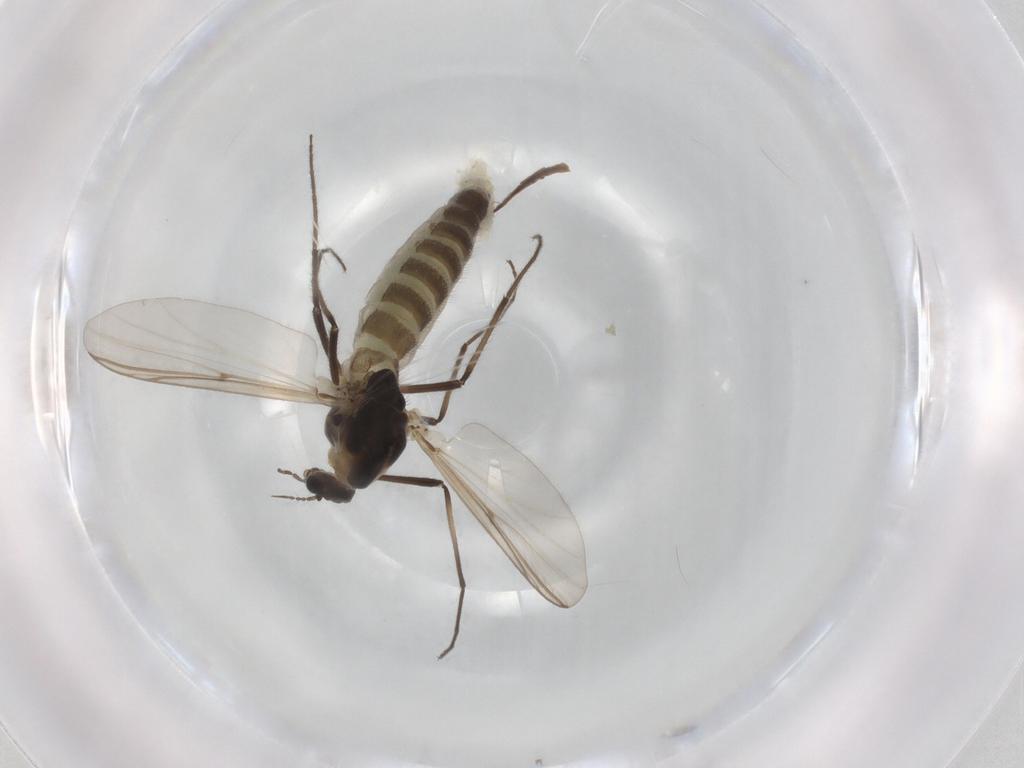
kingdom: Animalia
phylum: Arthropoda
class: Insecta
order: Diptera
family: Chironomidae
